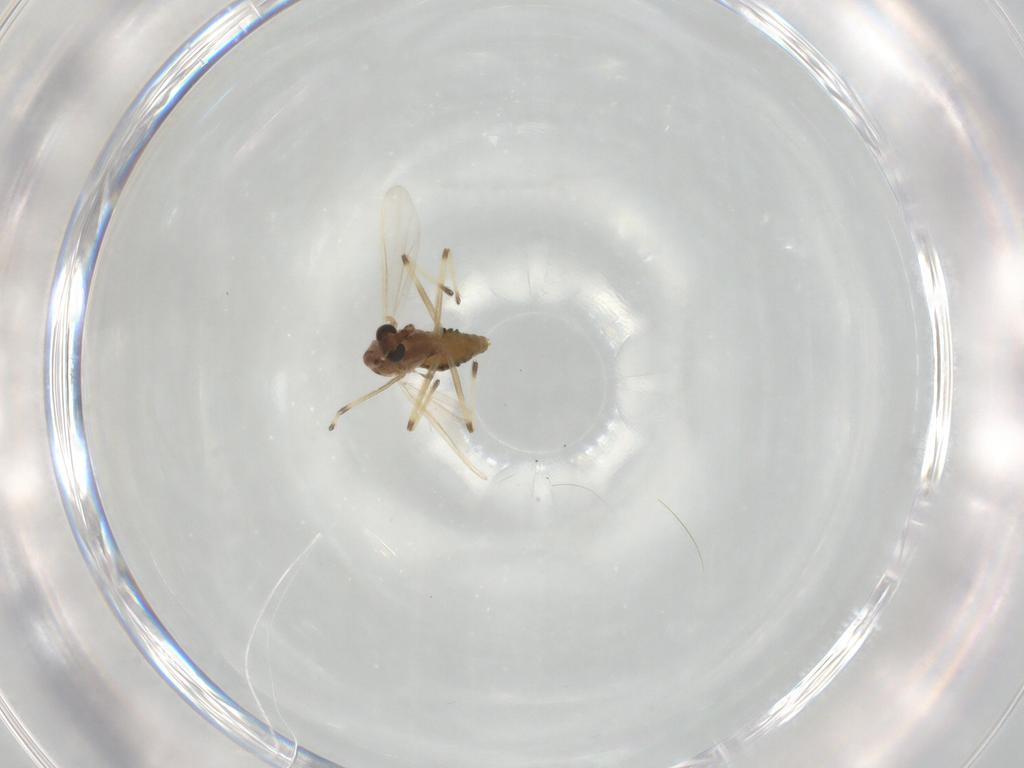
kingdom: Animalia
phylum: Arthropoda
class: Insecta
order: Diptera
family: Chironomidae
